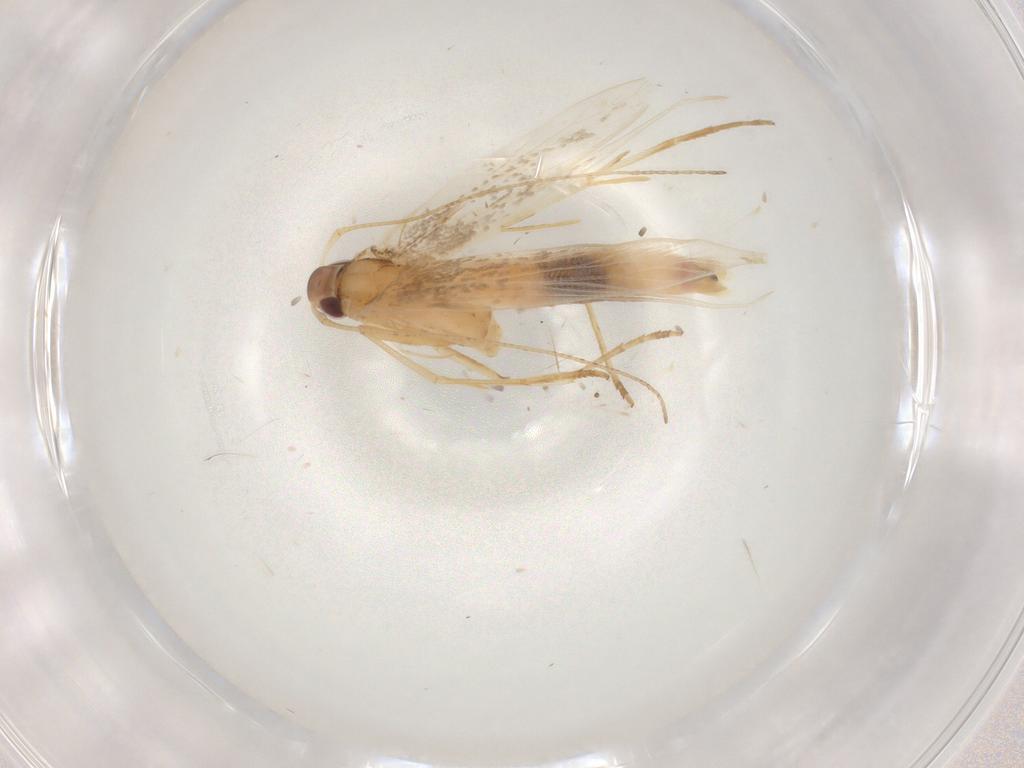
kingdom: Animalia
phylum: Arthropoda
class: Insecta
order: Lepidoptera
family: Cosmopterigidae
